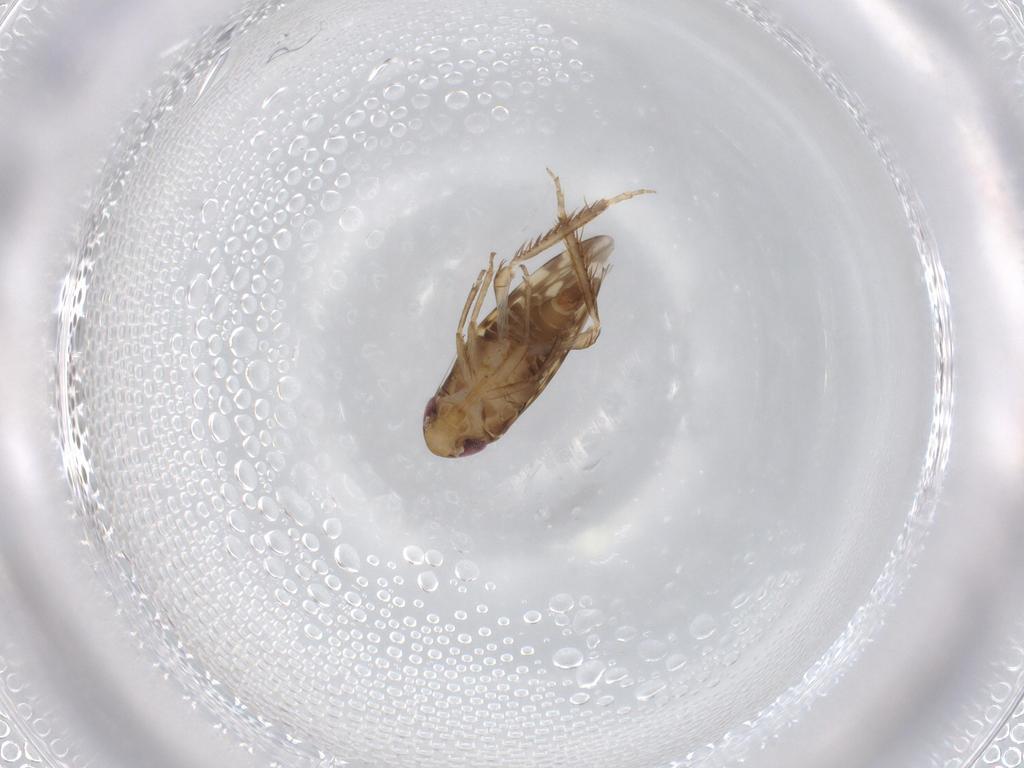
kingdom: Animalia
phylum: Arthropoda
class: Insecta
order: Hemiptera
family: Cicadellidae
